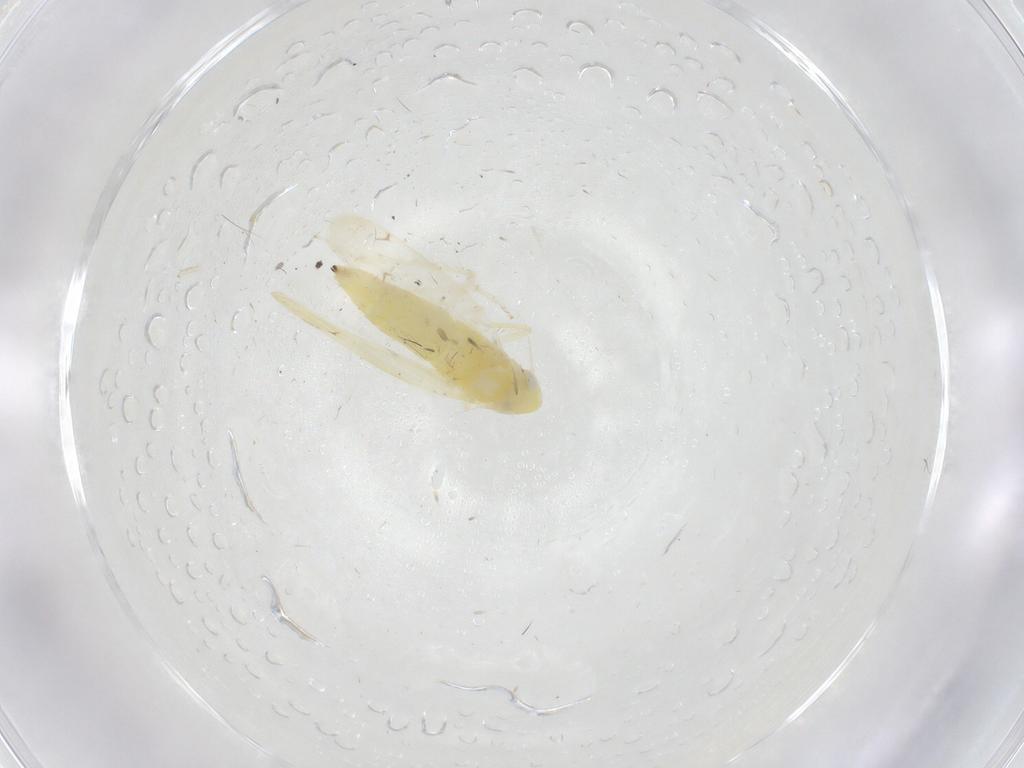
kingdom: Animalia
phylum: Arthropoda
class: Insecta
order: Hemiptera
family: Cicadellidae
